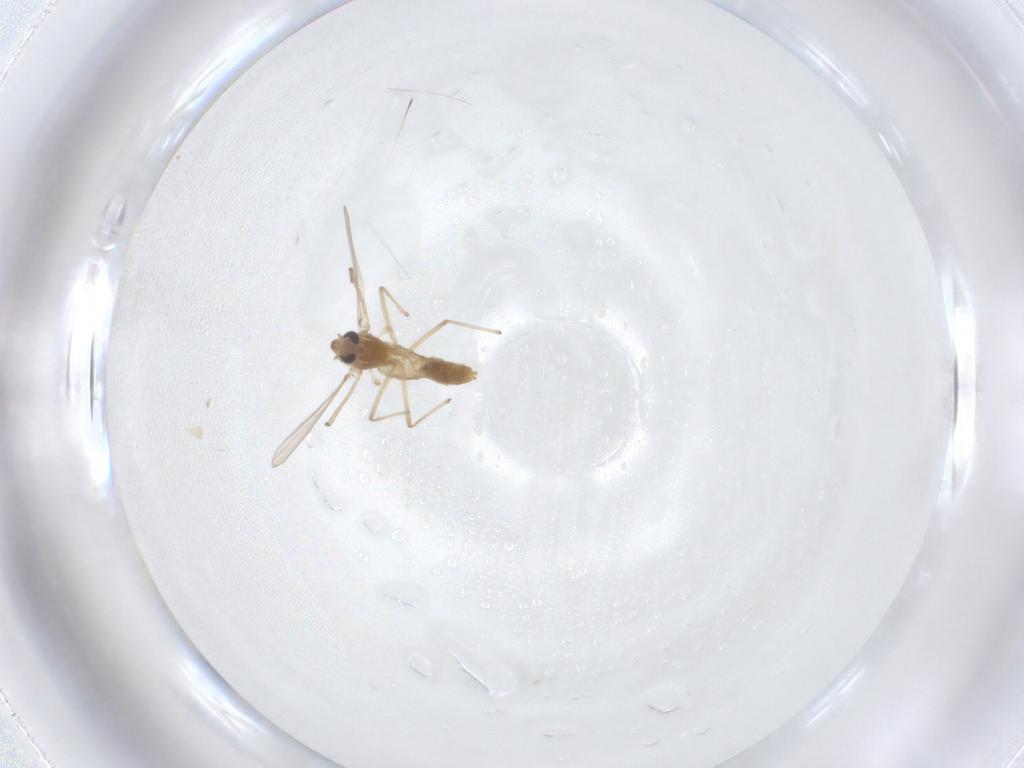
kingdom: Animalia
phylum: Arthropoda
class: Insecta
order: Diptera
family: Chironomidae
